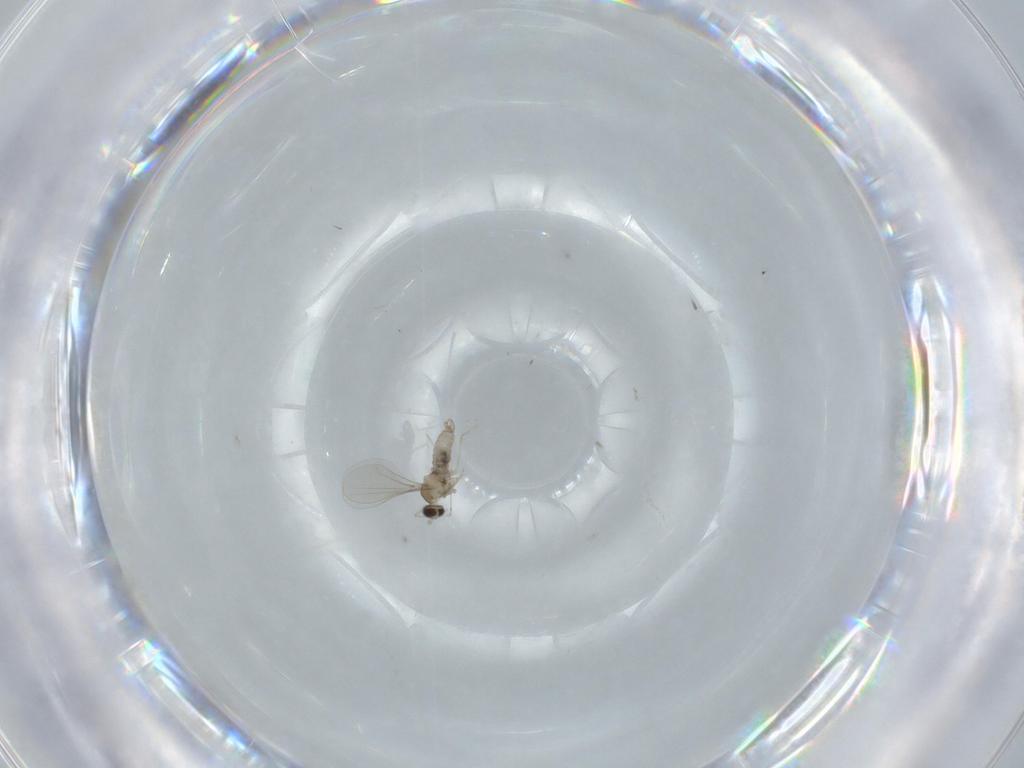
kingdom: Animalia
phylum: Arthropoda
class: Insecta
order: Diptera
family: Cecidomyiidae
